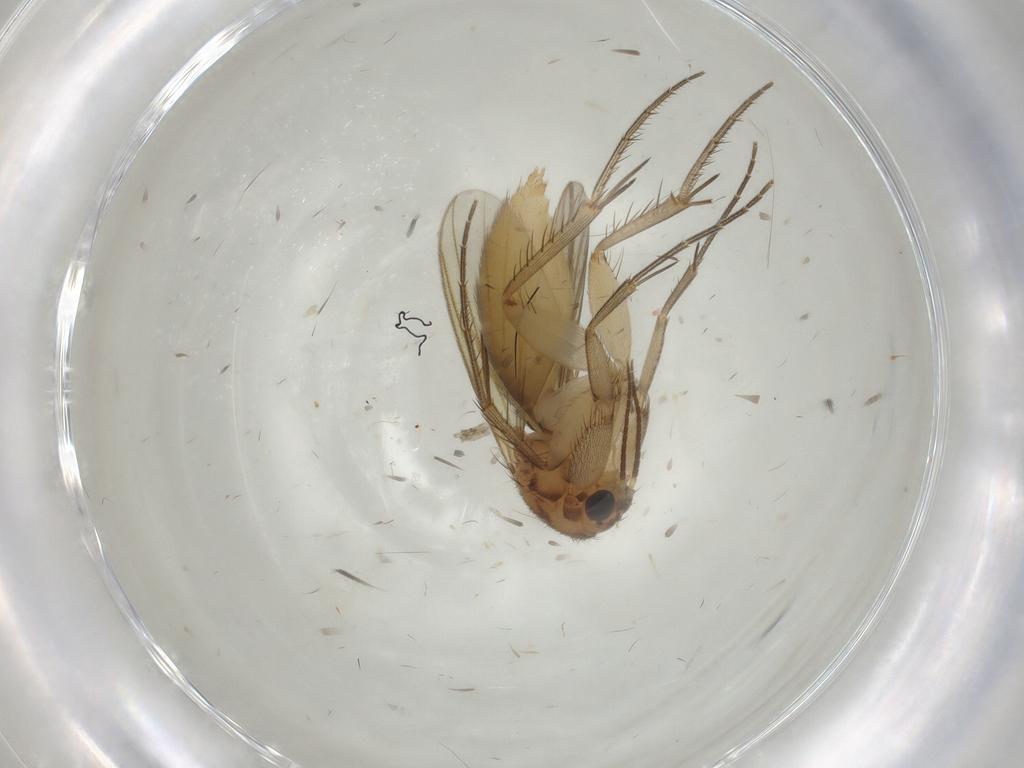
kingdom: Animalia
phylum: Arthropoda
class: Insecta
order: Diptera
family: Mycetophilidae
